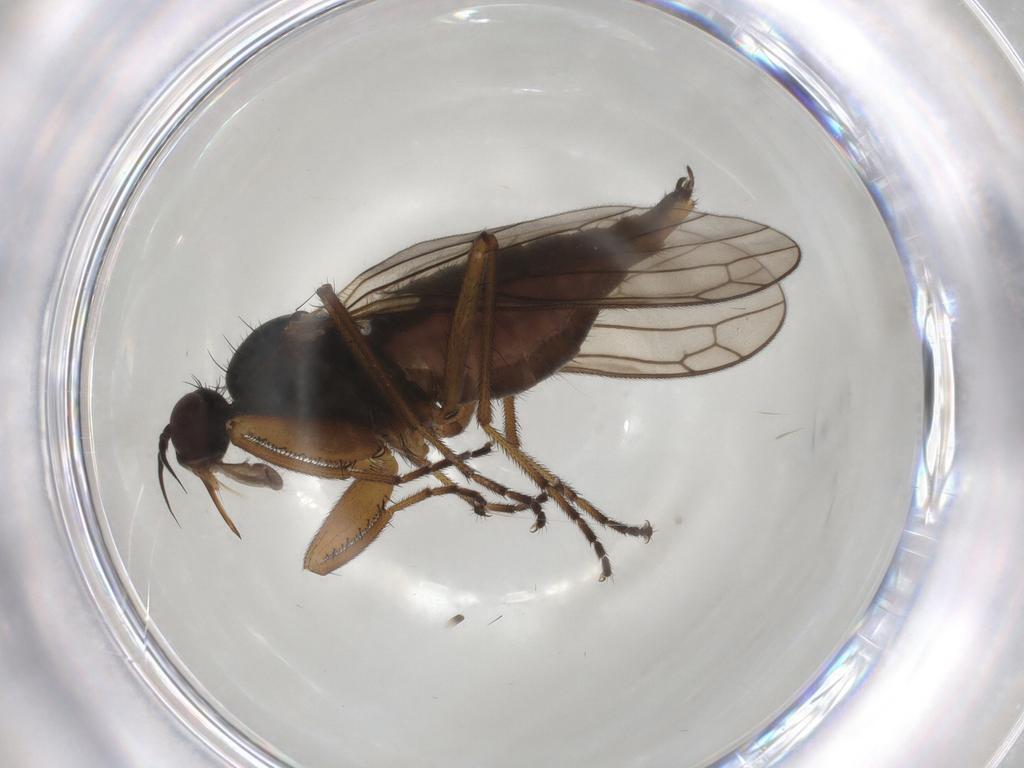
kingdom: Animalia
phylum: Arthropoda
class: Insecta
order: Diptera
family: Empididae
